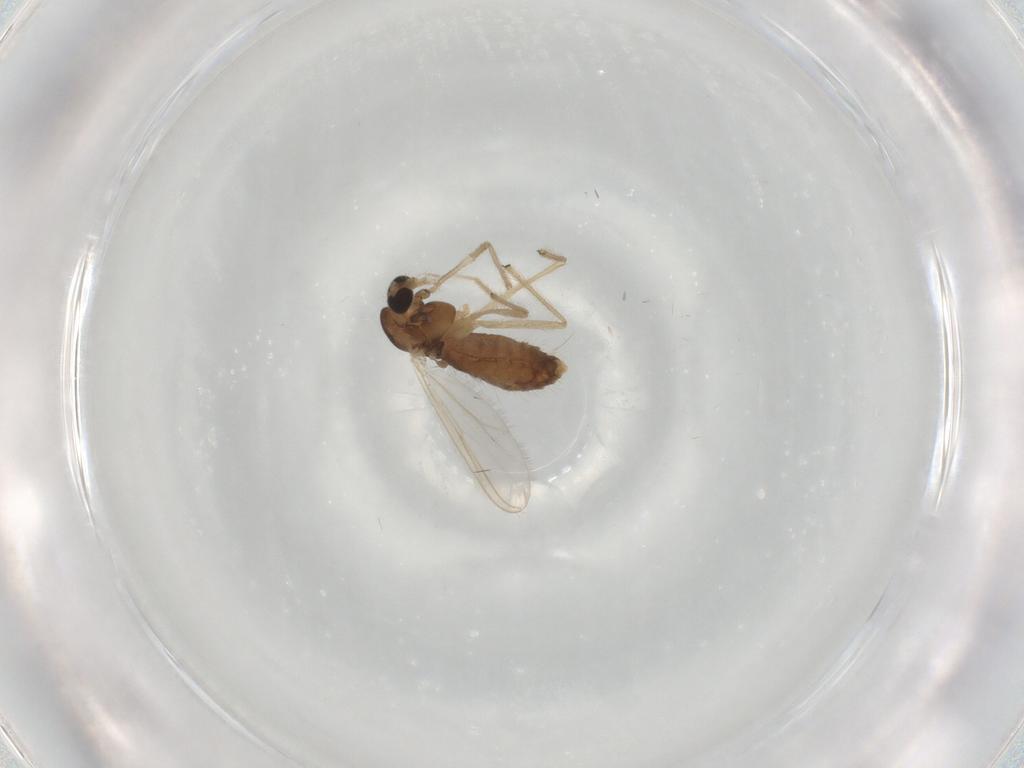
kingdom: Animalia
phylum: Arthropoda
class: Insecta
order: Diptera
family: Chironomidae
